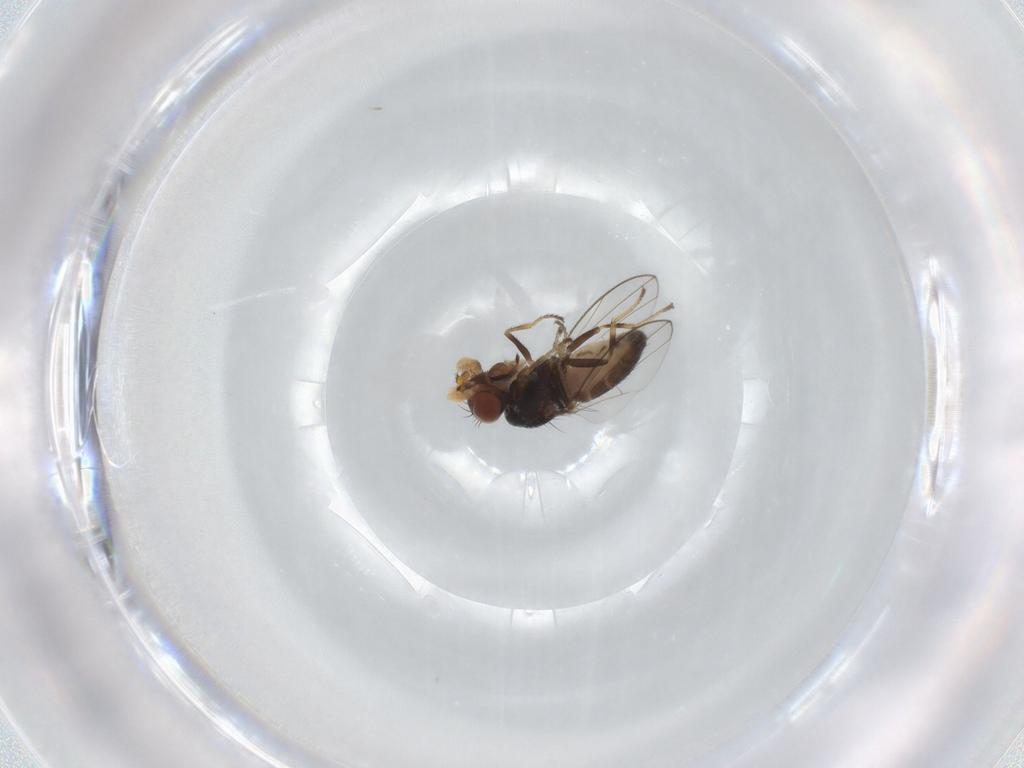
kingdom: Animalia
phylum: Arthropoda
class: Insecta
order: Diptera
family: Ephydridae
